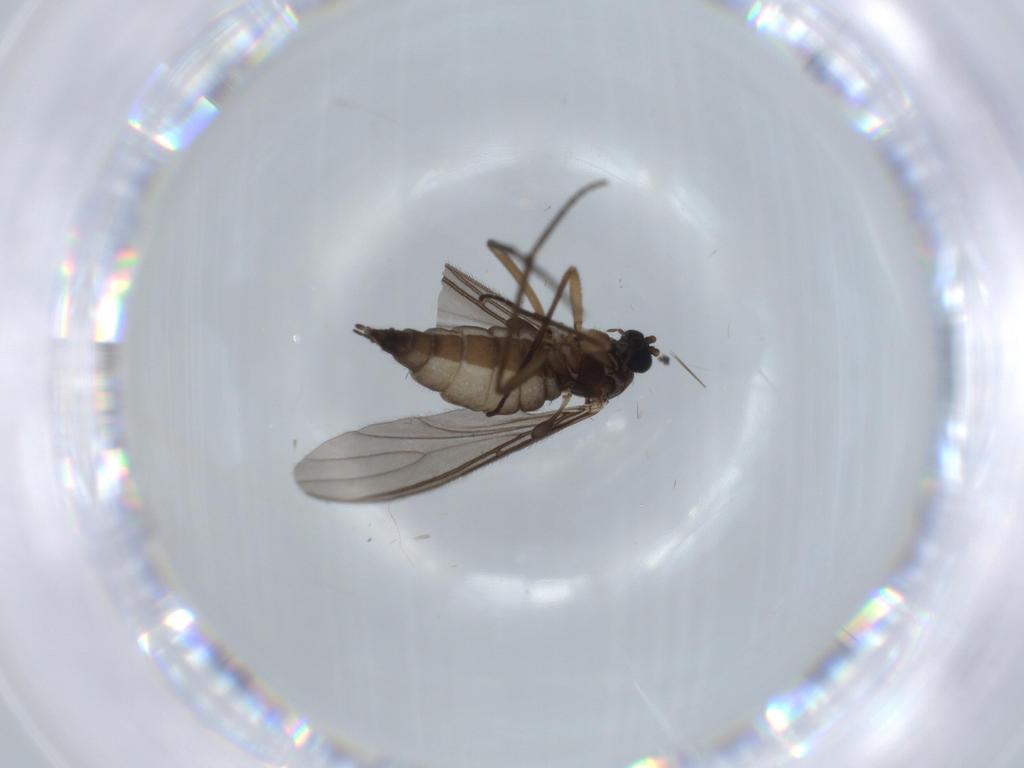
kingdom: Animalia
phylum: Arthropoda
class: Insecta
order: Diptera
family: Sciaridae
